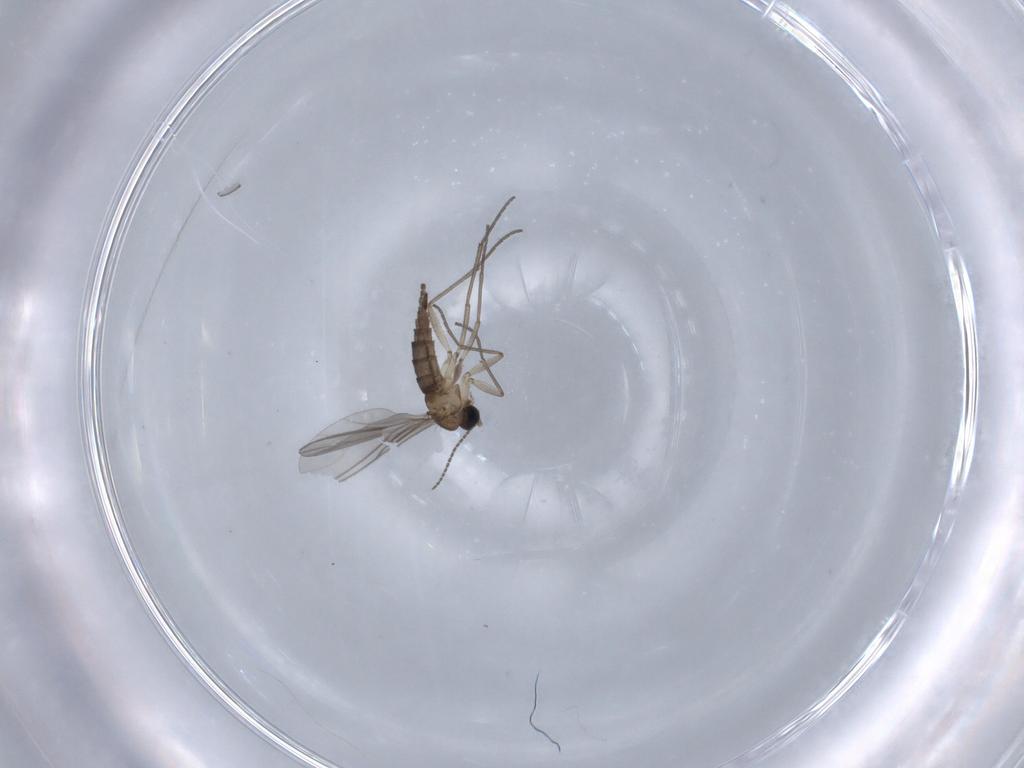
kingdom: Animalia
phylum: Arthropoda
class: Insecta
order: Diptera
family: Sciaridae
